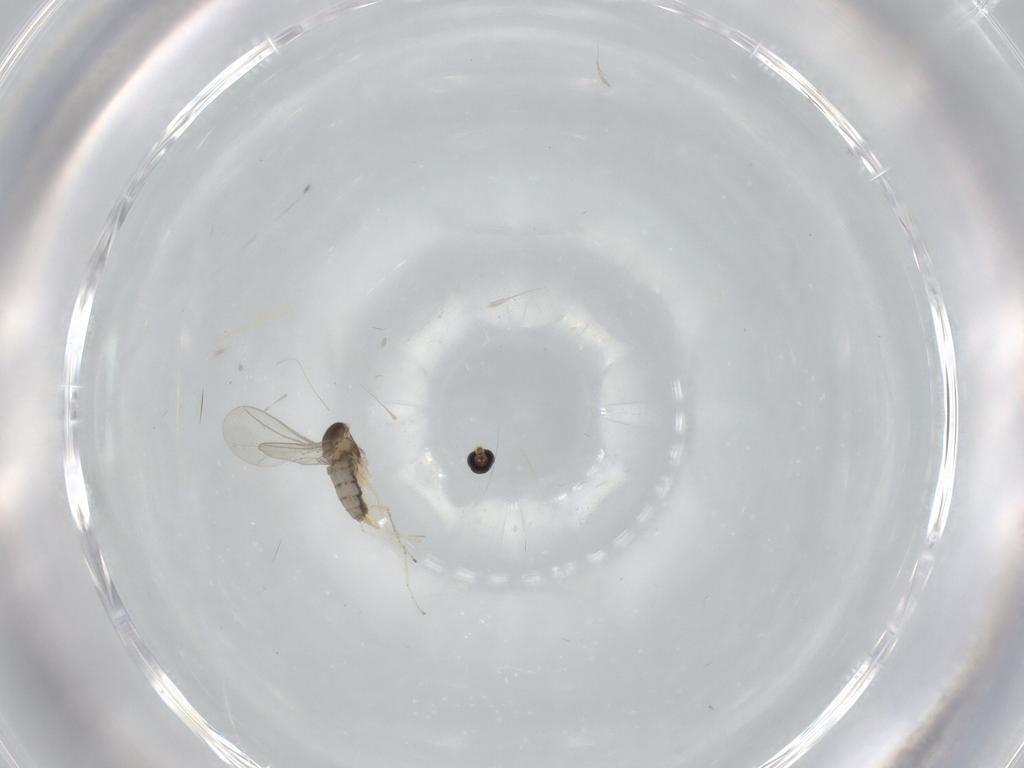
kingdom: Animalia
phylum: Arthropoda
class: Insecta
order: Diptera
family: Cecidomyiidae
